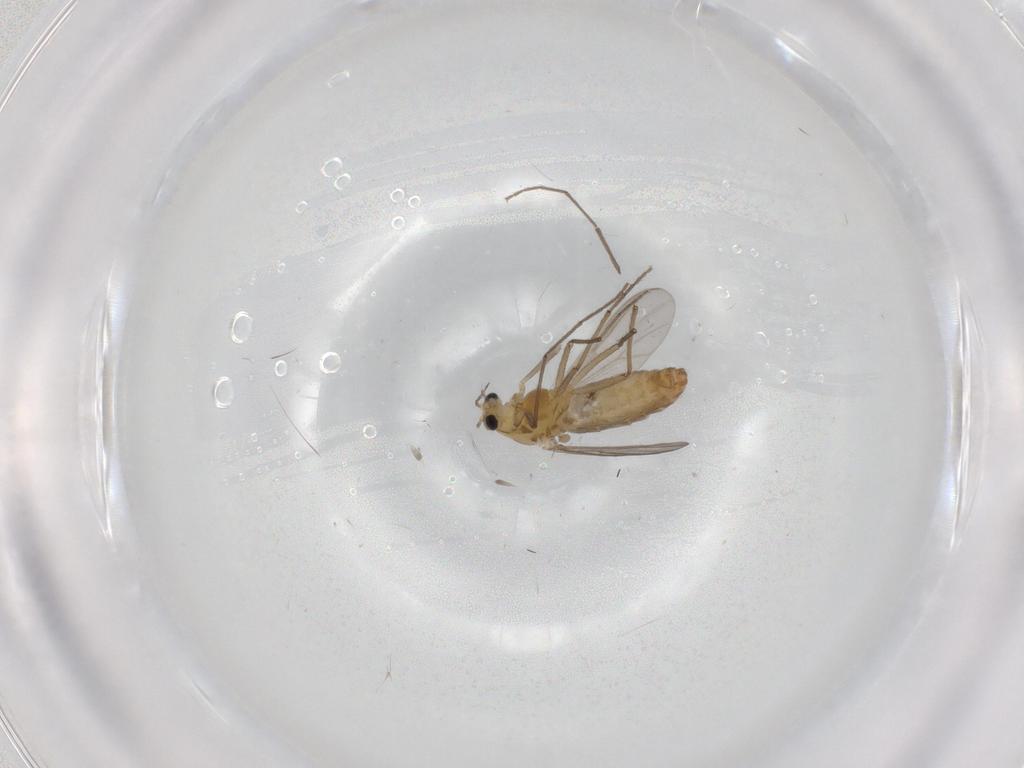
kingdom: Animalia
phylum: Arthropoda
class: Insecta
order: Diptera
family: Chironomidae
